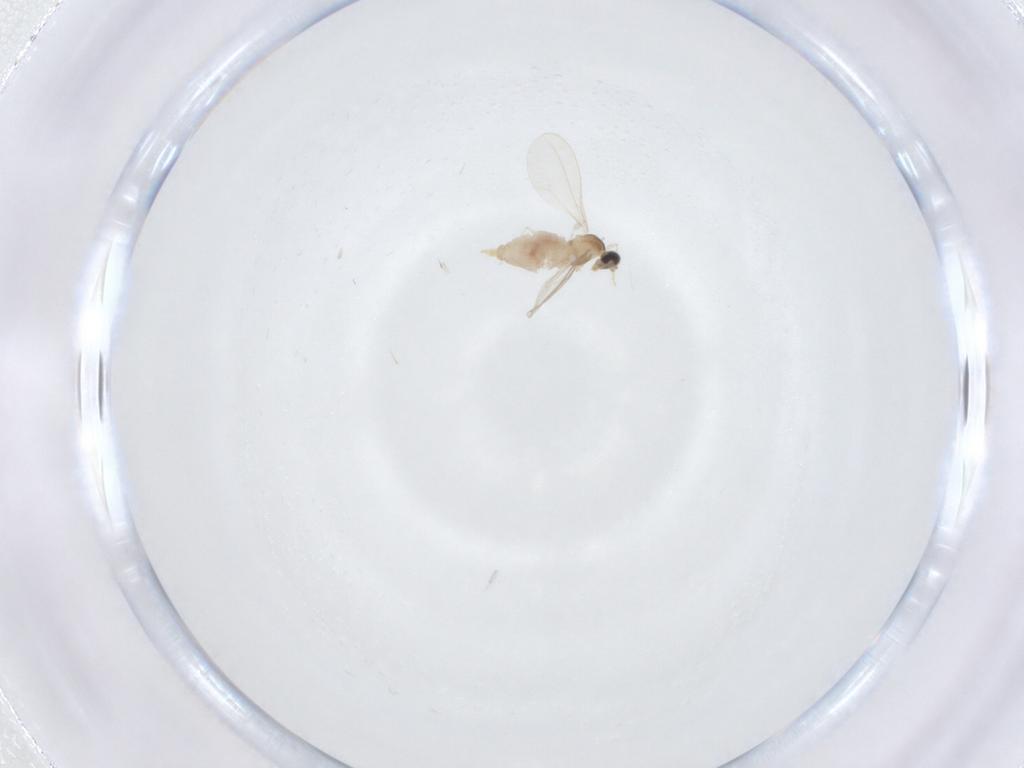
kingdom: Animalia
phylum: Arthropoda
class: Insecta
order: Diptera
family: Cecidomyiidae
